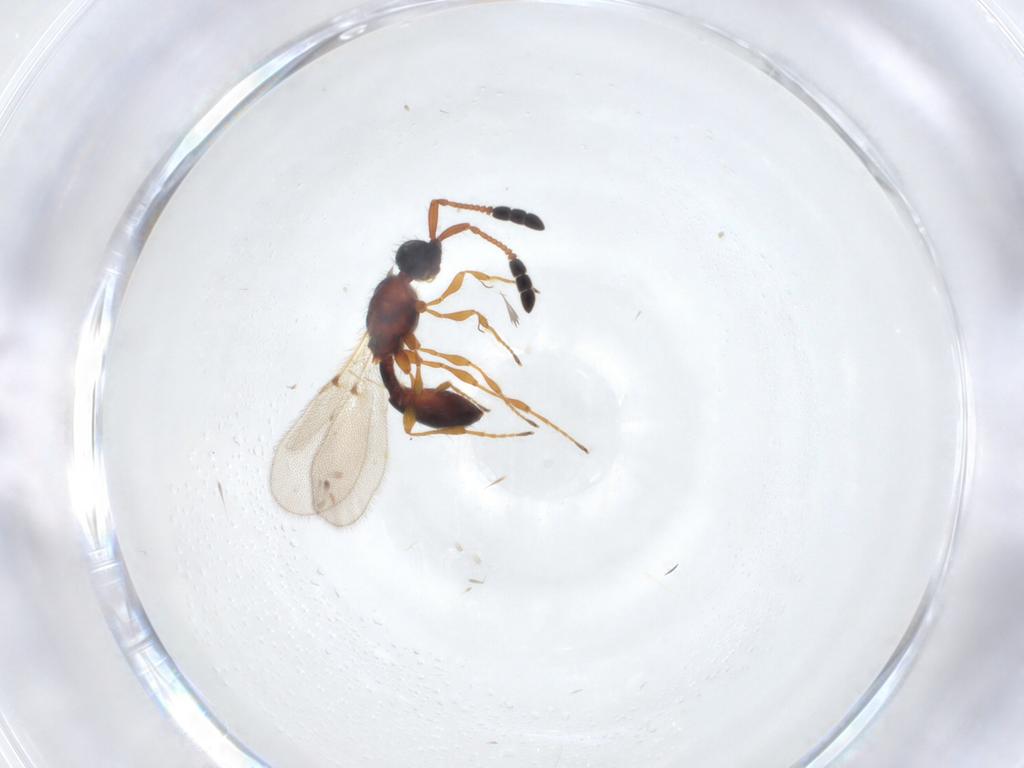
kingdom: Animalia
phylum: Arthropoda
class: Insecta
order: Hymenoptera
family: Diapriidae
